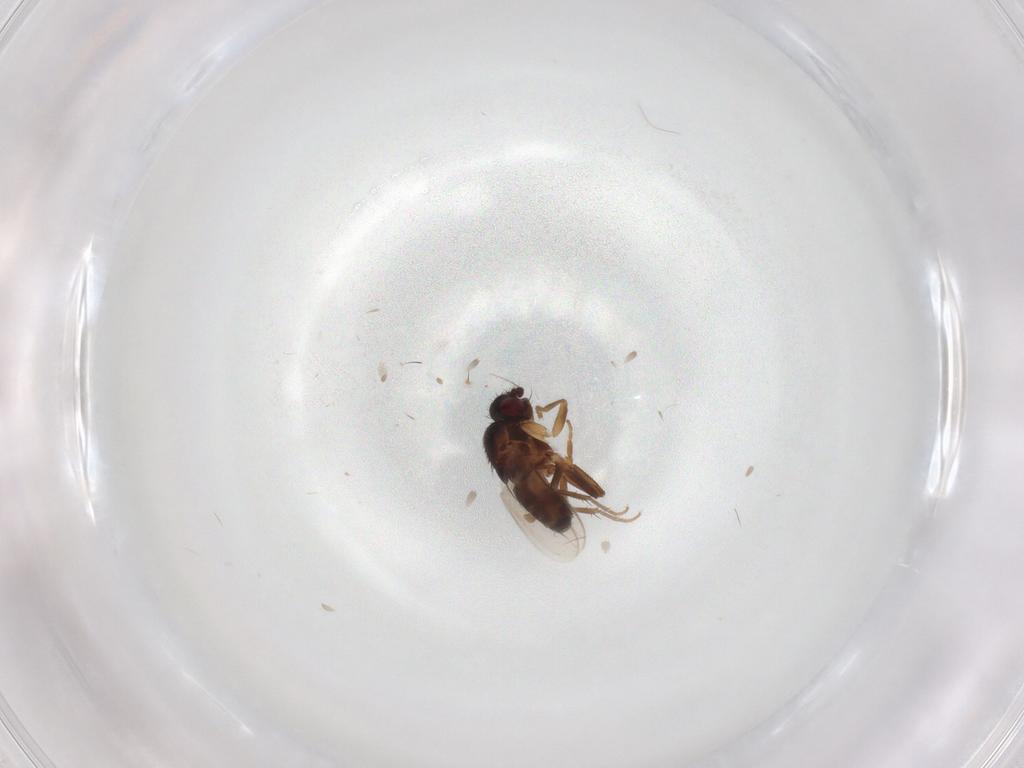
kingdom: Animalia
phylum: Arthropoda
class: Insecta
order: Diptera
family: Sphaeroceridae
